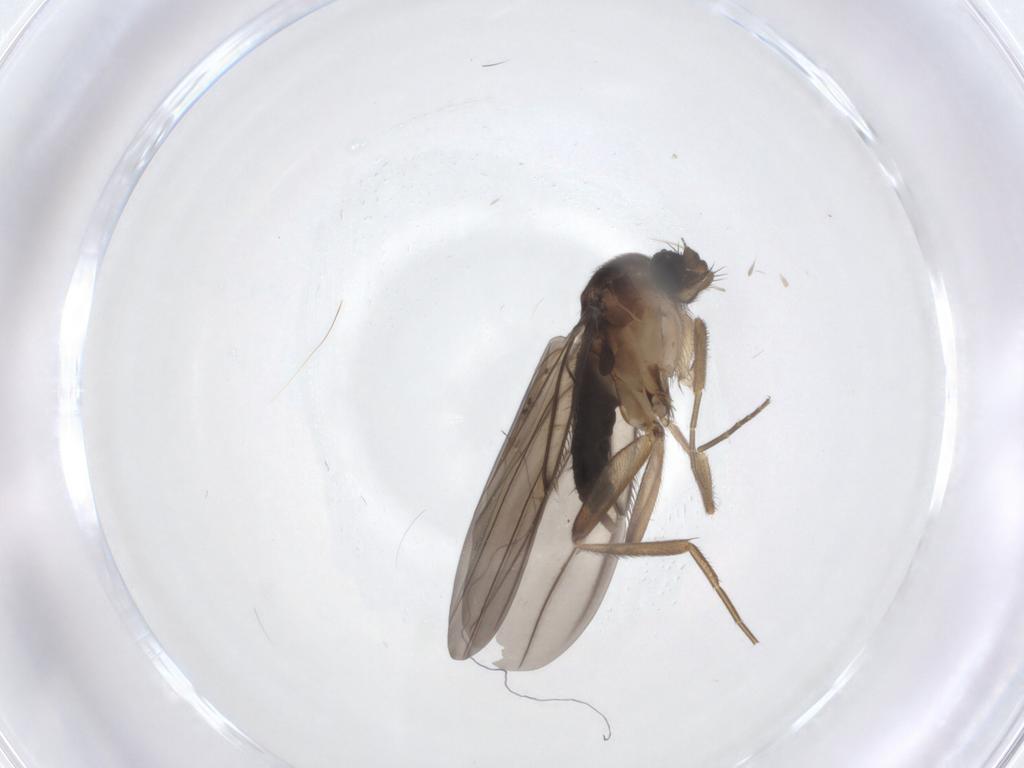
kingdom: Animalia
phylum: Arthropoda
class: Insecta
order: Diptera
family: Phoridae
